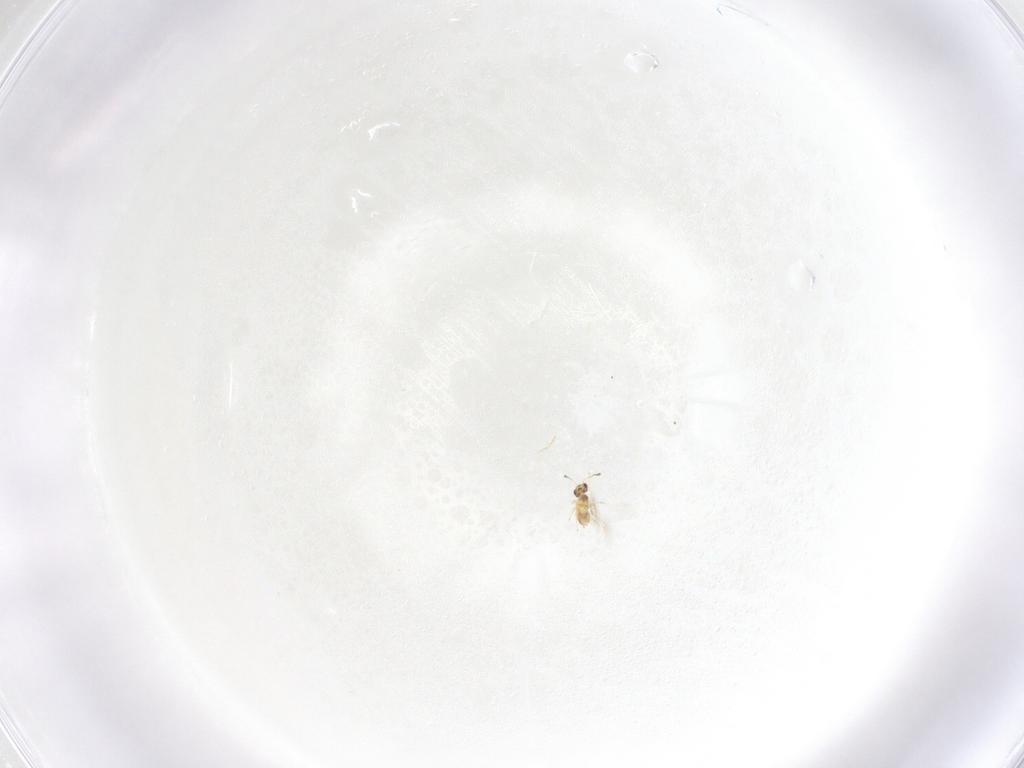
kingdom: Animalia
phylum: Arthropoda
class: Insecta
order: Hymenoptera
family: Mymaridae
